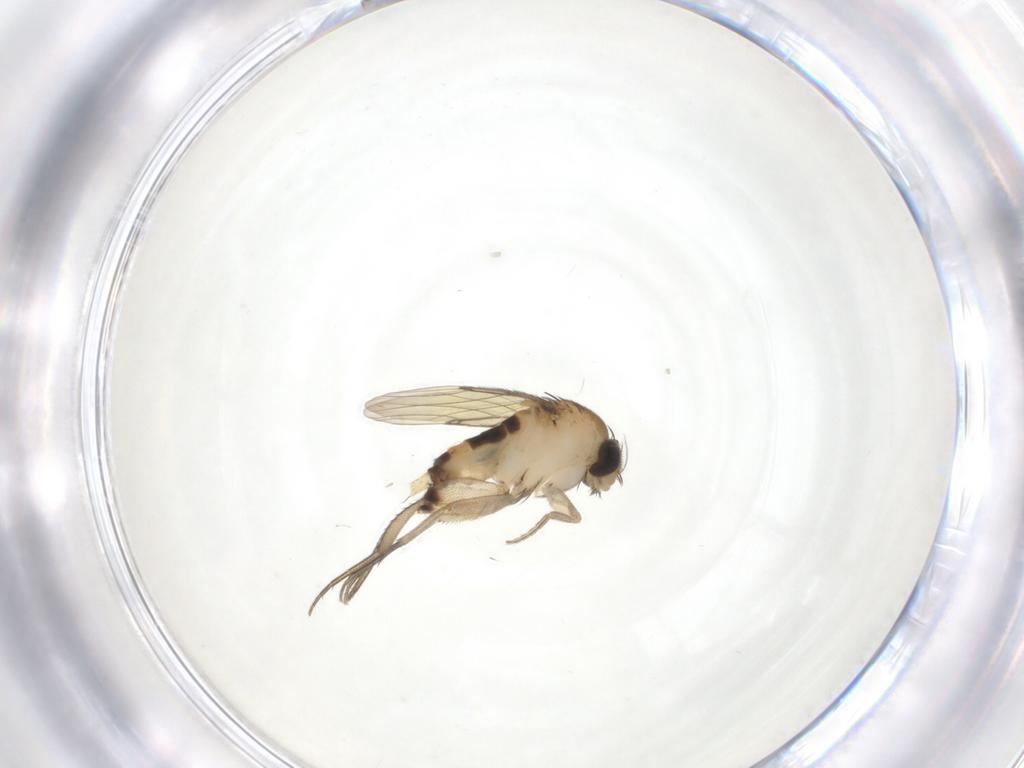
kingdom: Animalia
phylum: Arthropoda
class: Insecta
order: Diptera
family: Phoridae
